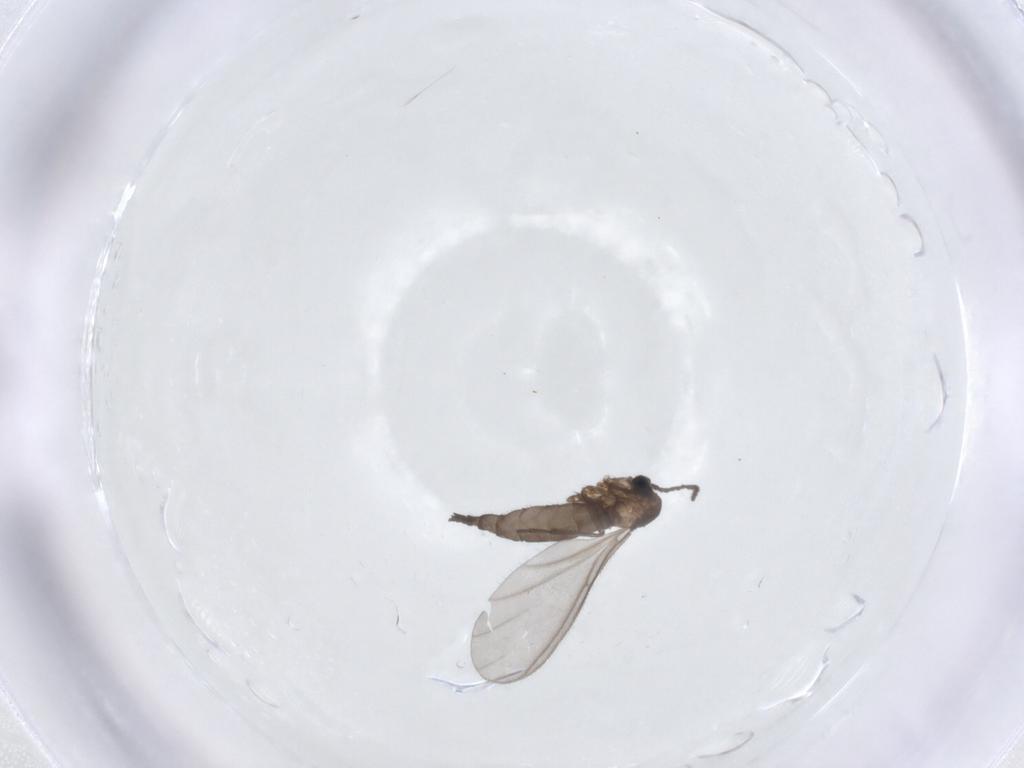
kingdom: Animalia
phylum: Arthropoda
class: Insecta
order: Diptera
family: Sciaridae
